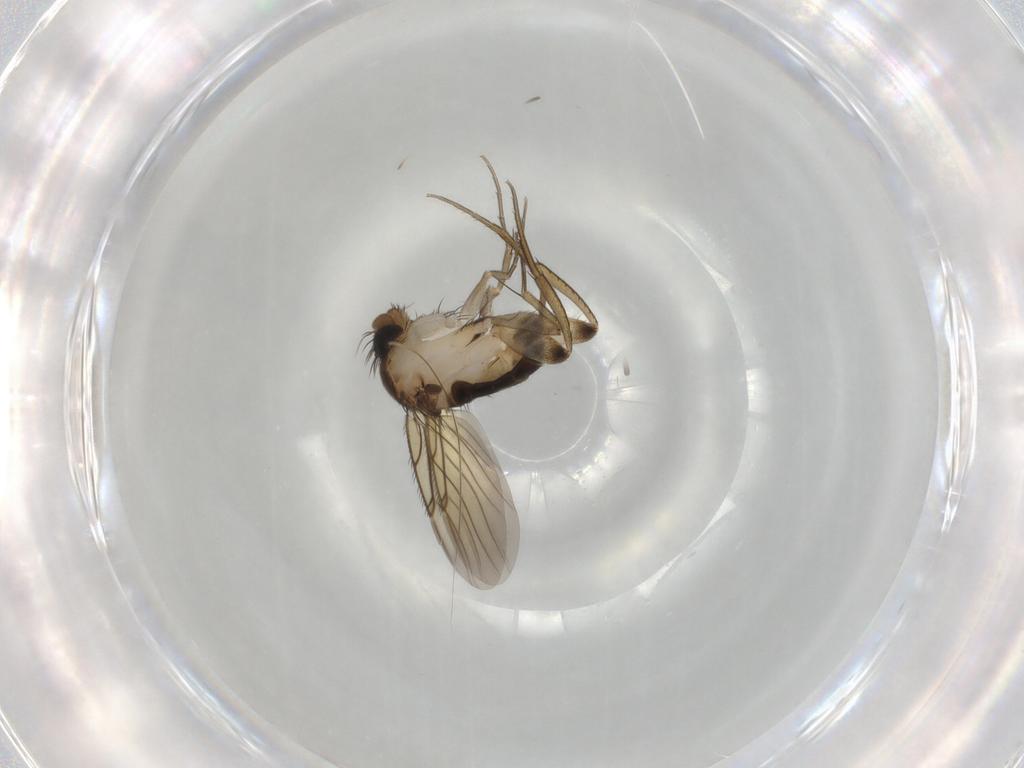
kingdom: Animalia
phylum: Arthropoda
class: Insecta
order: Diptera
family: Phoridae
